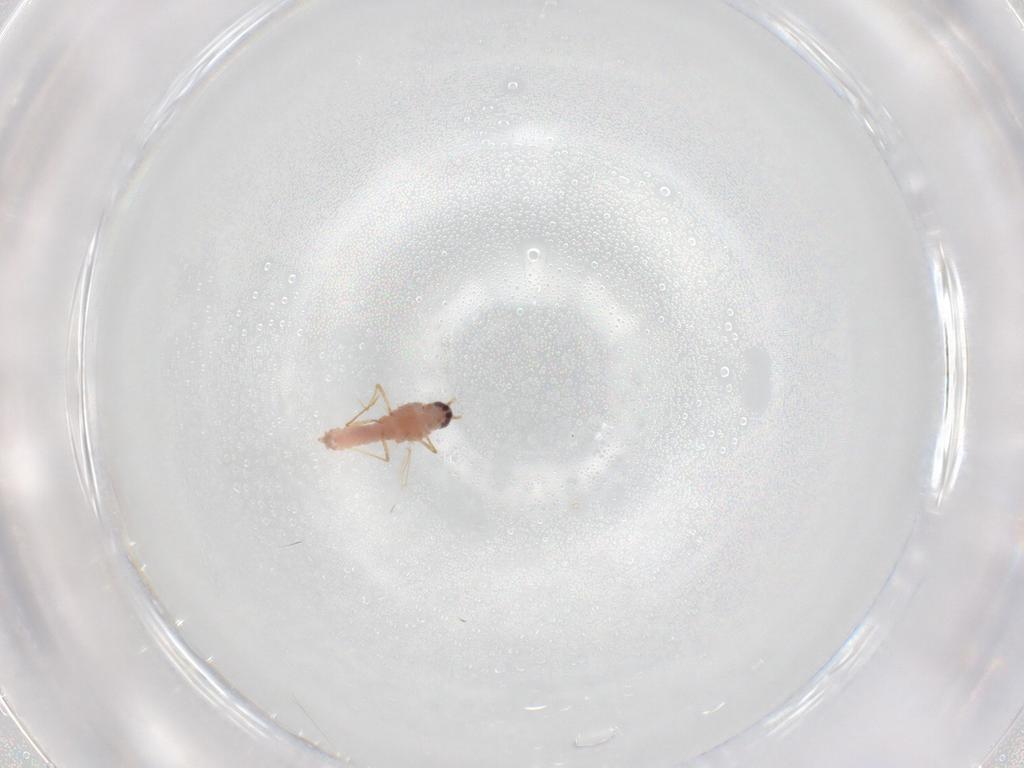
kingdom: Animalia
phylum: Arthropoda
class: Insecta
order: Hemiptera
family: Pseudococcidae
